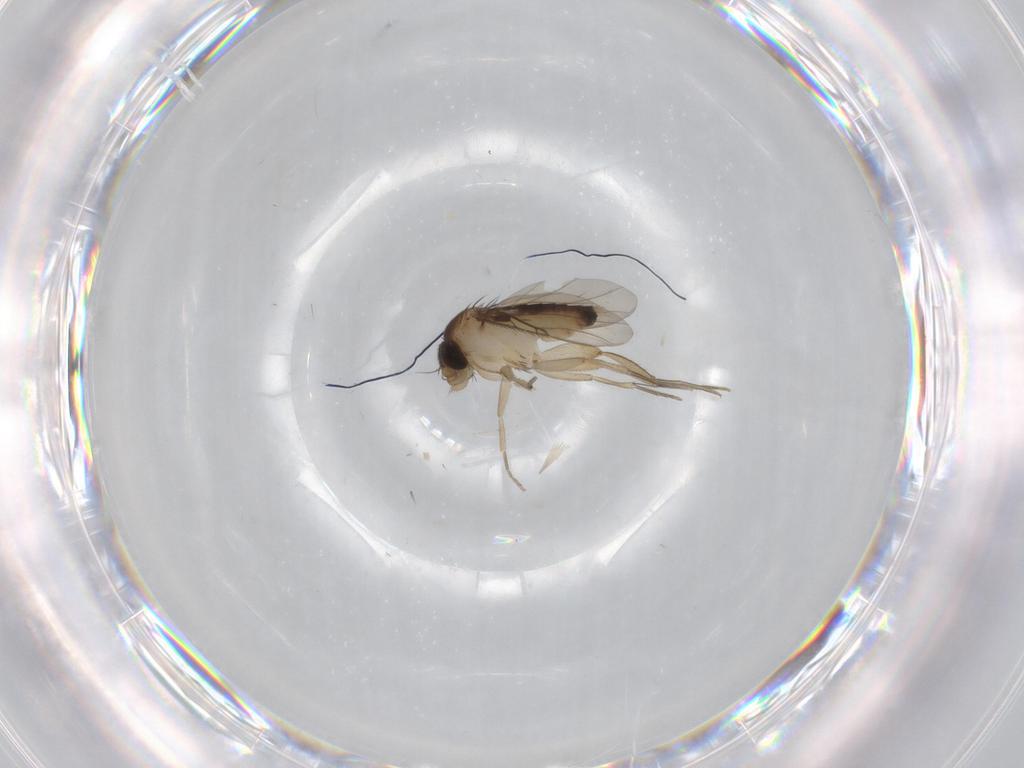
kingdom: Animalia
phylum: Arthropoda
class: Insecta
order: Diptera
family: Phoridae
